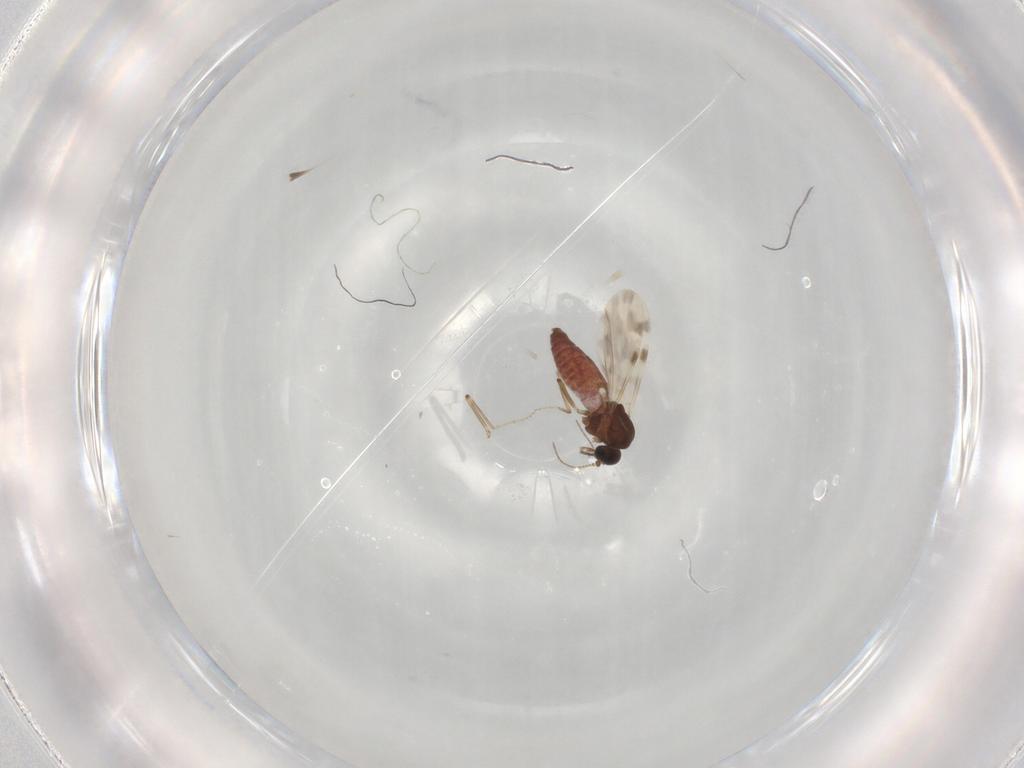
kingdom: Animalia
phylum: Arthropoda
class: Insecta
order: Diptera
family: Ceratopogonidae
